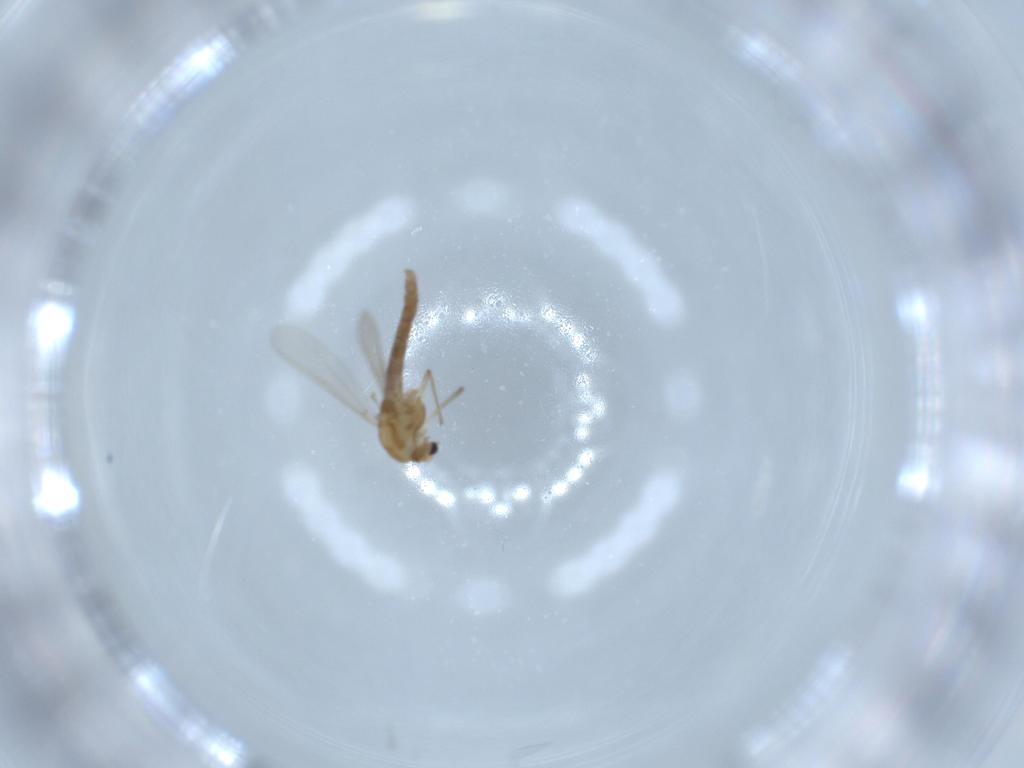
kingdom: Animalia
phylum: Arthropoda
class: Insecta
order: Diptera
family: Chironomidae
